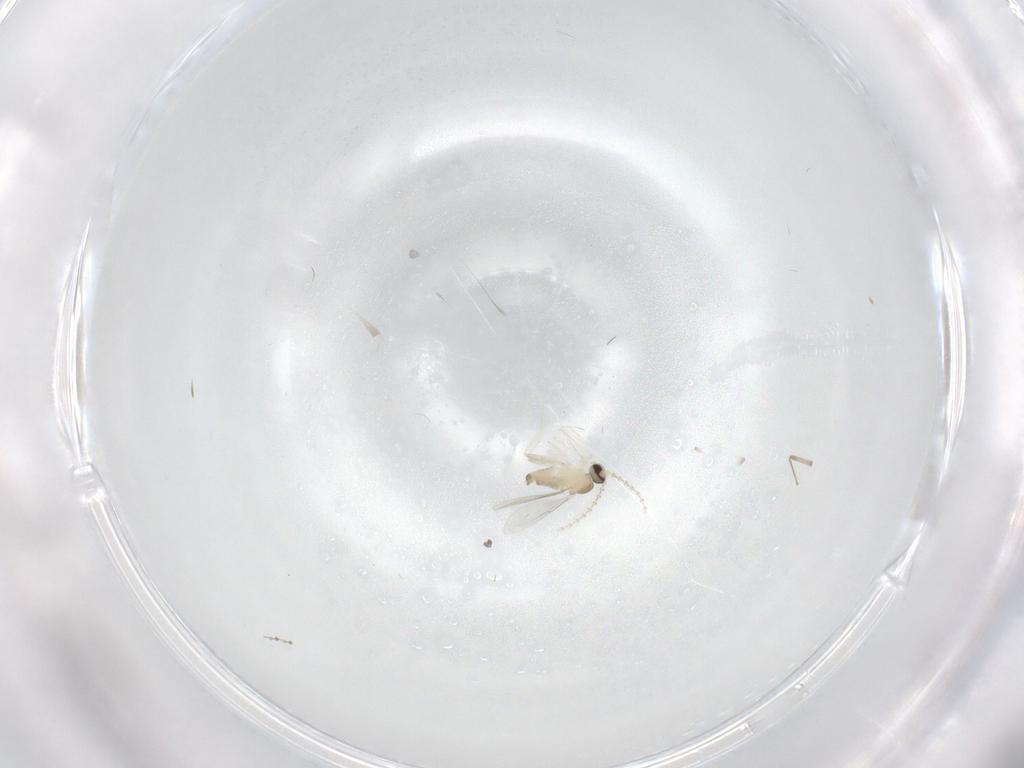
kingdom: Animalia
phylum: Arthropoda
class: Insecta
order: Diptera
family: Cecidomyiidae
